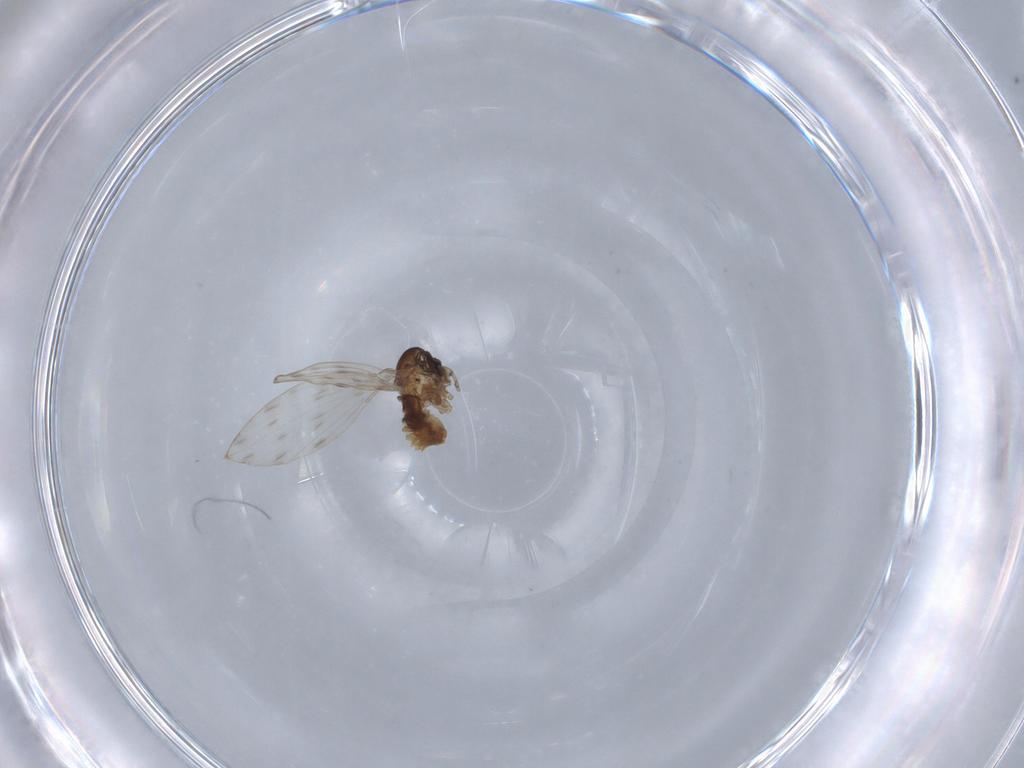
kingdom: Animalia
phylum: Arthropoda
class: Insecta
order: Diptera
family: Psychodidae
